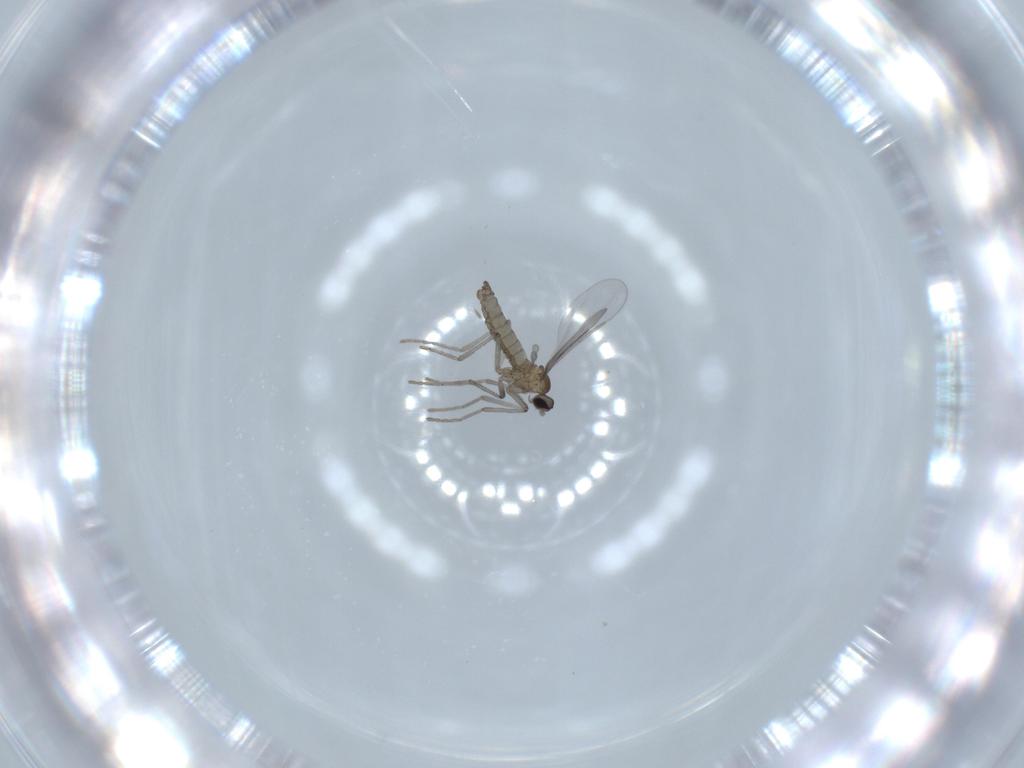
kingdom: Animalia
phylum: Arthropoda
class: Insecta
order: Diptera
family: Cecidomyiidae
